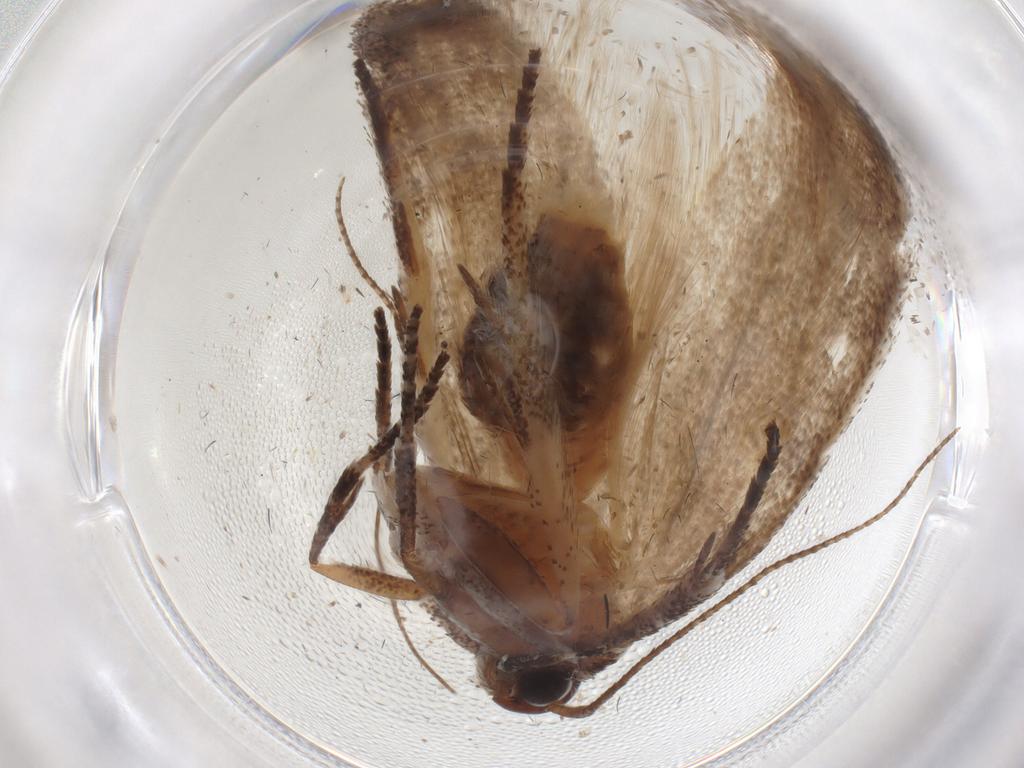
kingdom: Animalia
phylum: Arthropoda
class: Insecta
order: Lepidoptera
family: Cosmopterigidae
